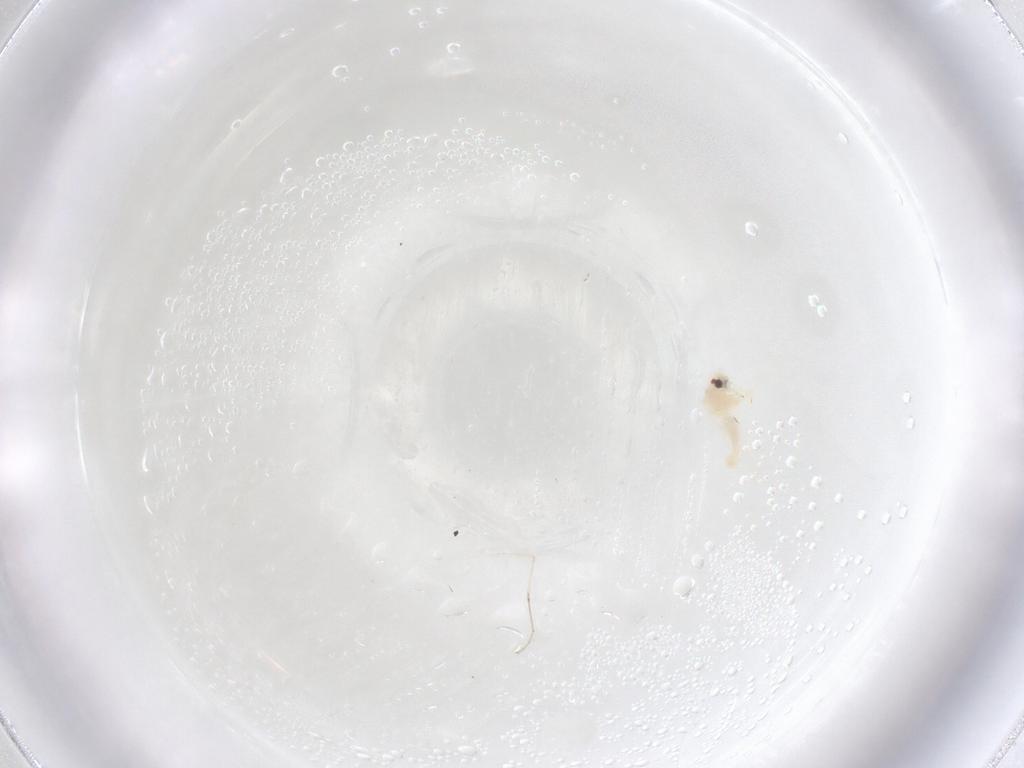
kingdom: Animalia
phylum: Arthropoda
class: Insecta
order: Hemiptera
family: Aleyrodidae
